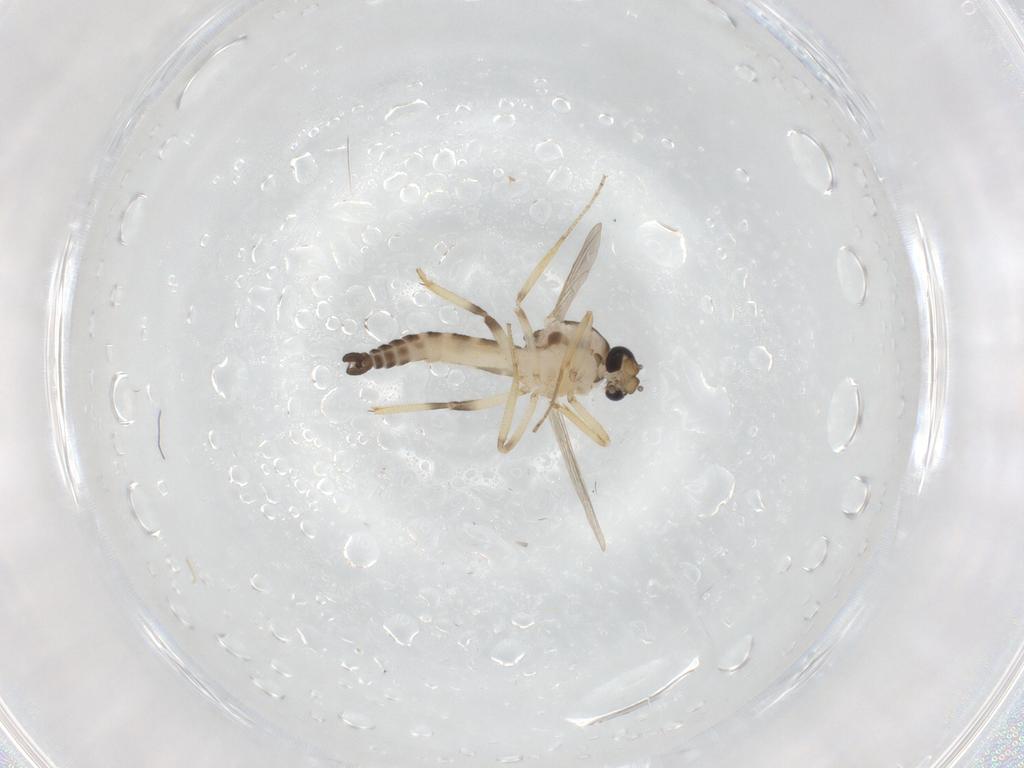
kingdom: Animalia
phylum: Arthropoda
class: Insecta
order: Diptera
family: Ceratopogonidae
